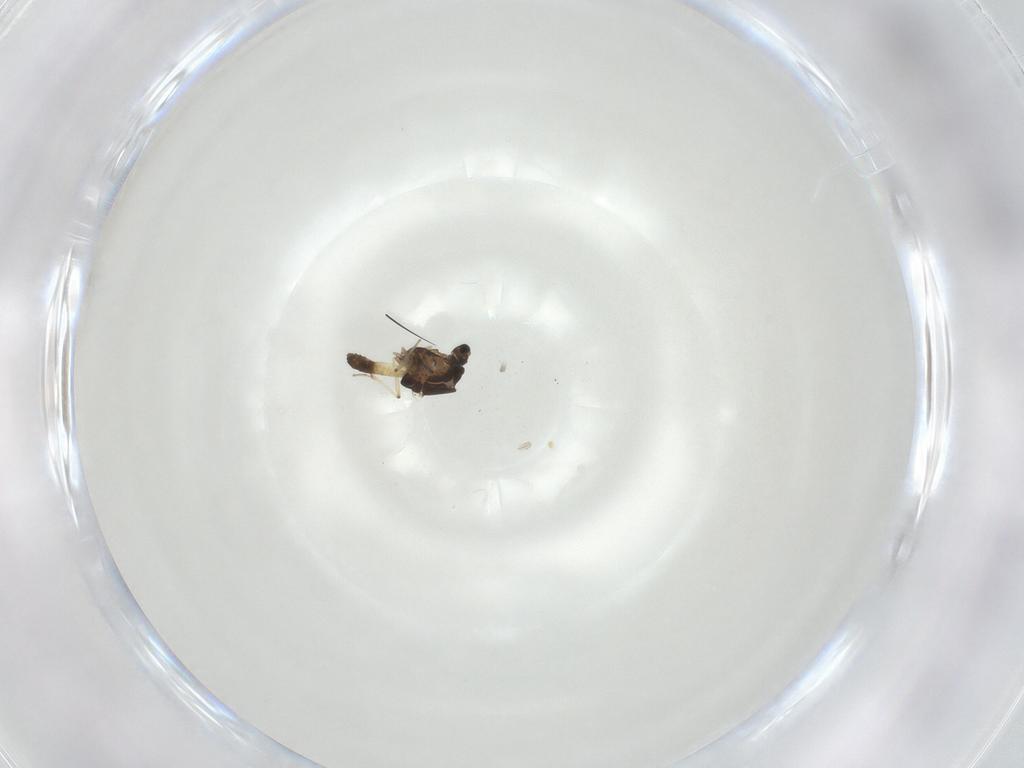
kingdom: Animalia
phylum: Arthropoda
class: Insecta
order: Diptera
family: Chironomidae
